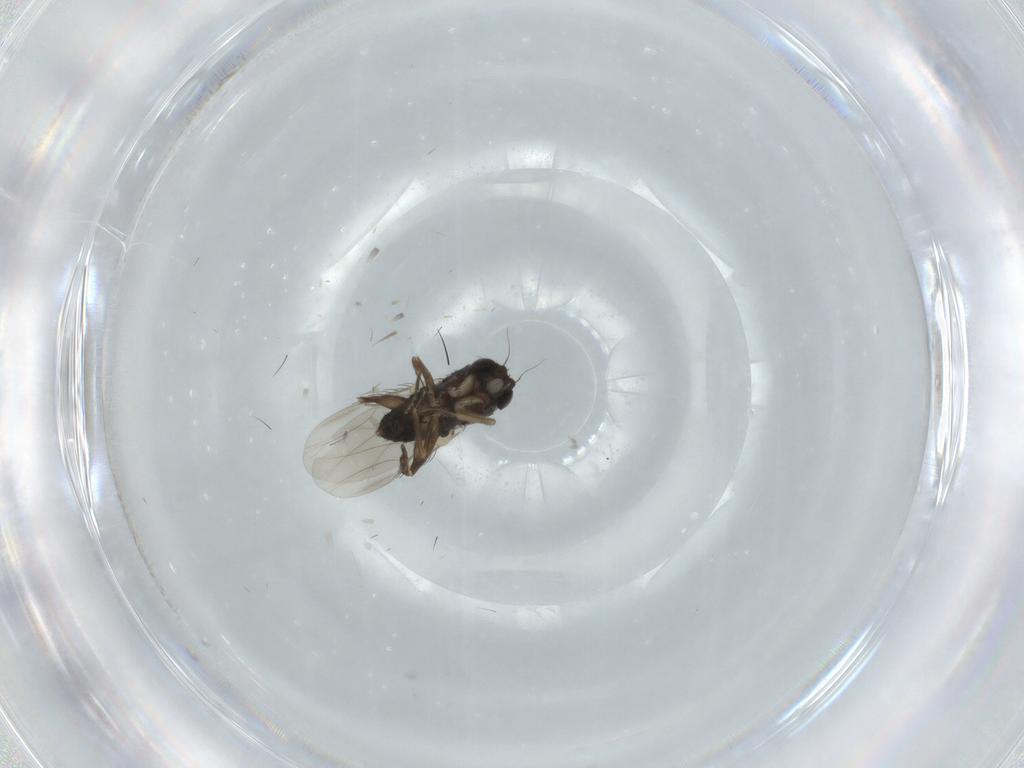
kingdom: Animalia
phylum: Arthropoda
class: Insecta
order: Diptera
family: Phoridae
